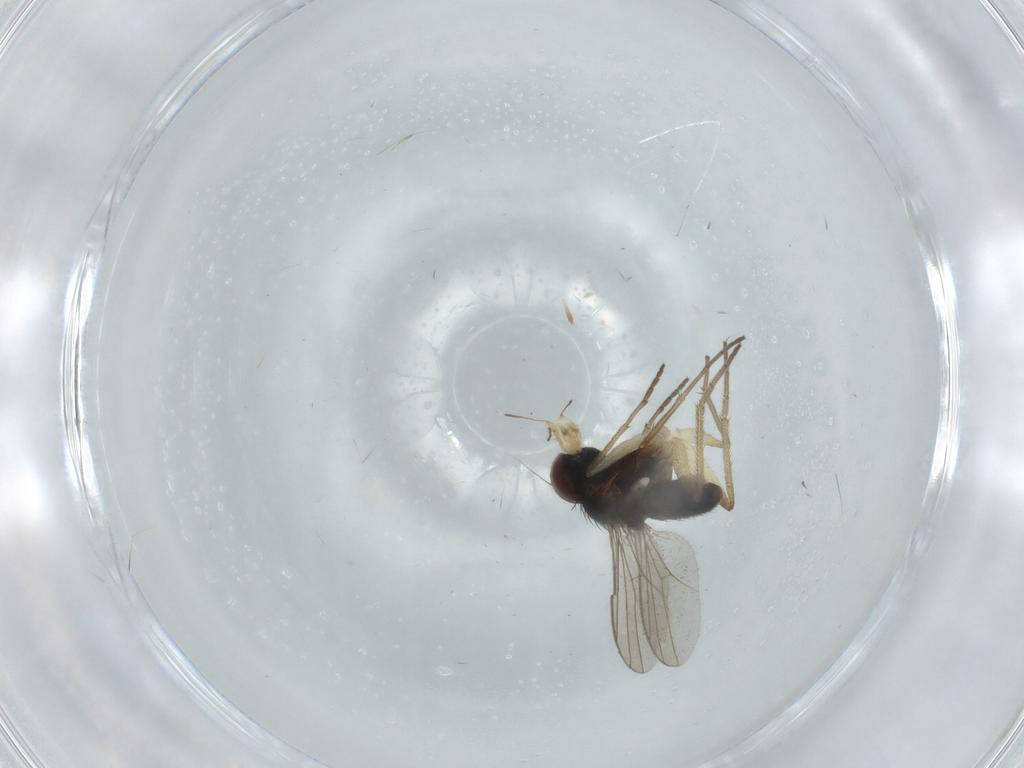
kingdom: Animalia
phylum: Arthropoda
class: Insecta
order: Diptera
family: Dolichopodidae
